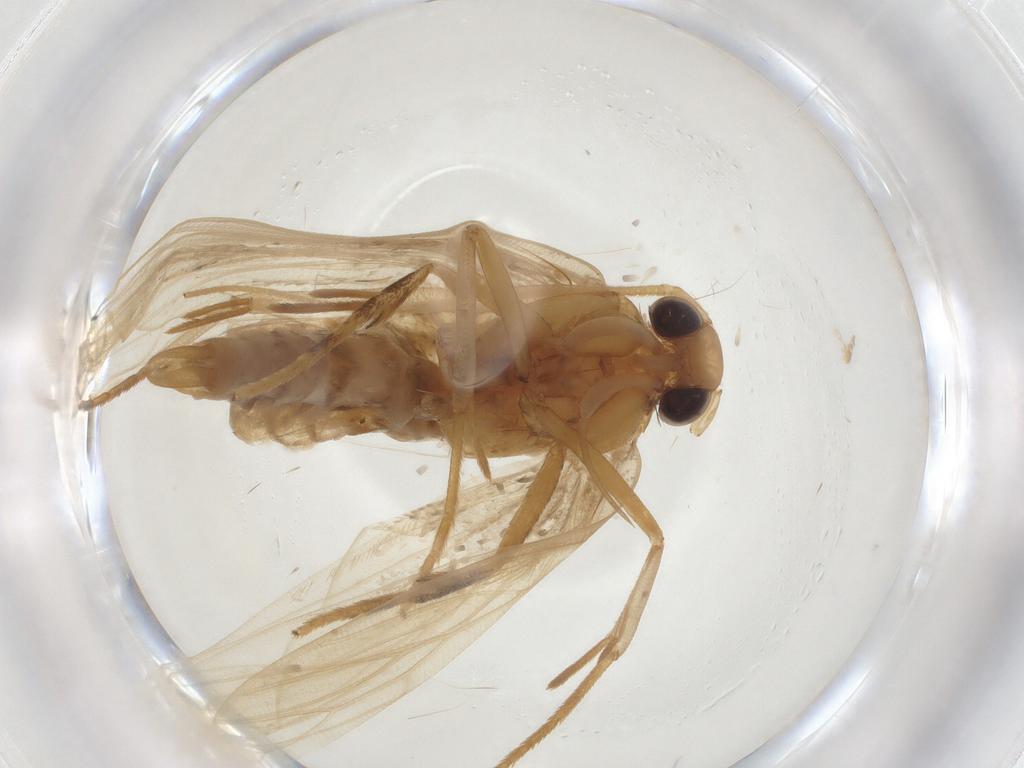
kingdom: Animalia
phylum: Arthropoda
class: Insecta
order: Lepidoptera
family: Lecithoceridae
